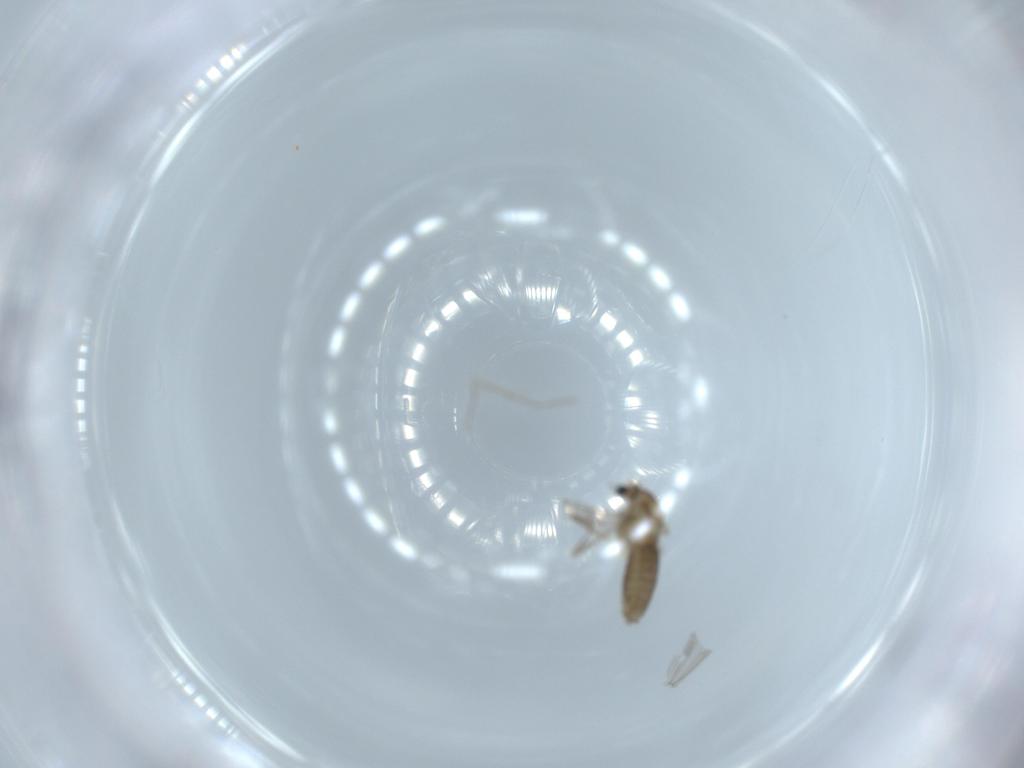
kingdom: Animalia
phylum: Arthropoda
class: Insecta
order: Diptera
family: Chironomidae
